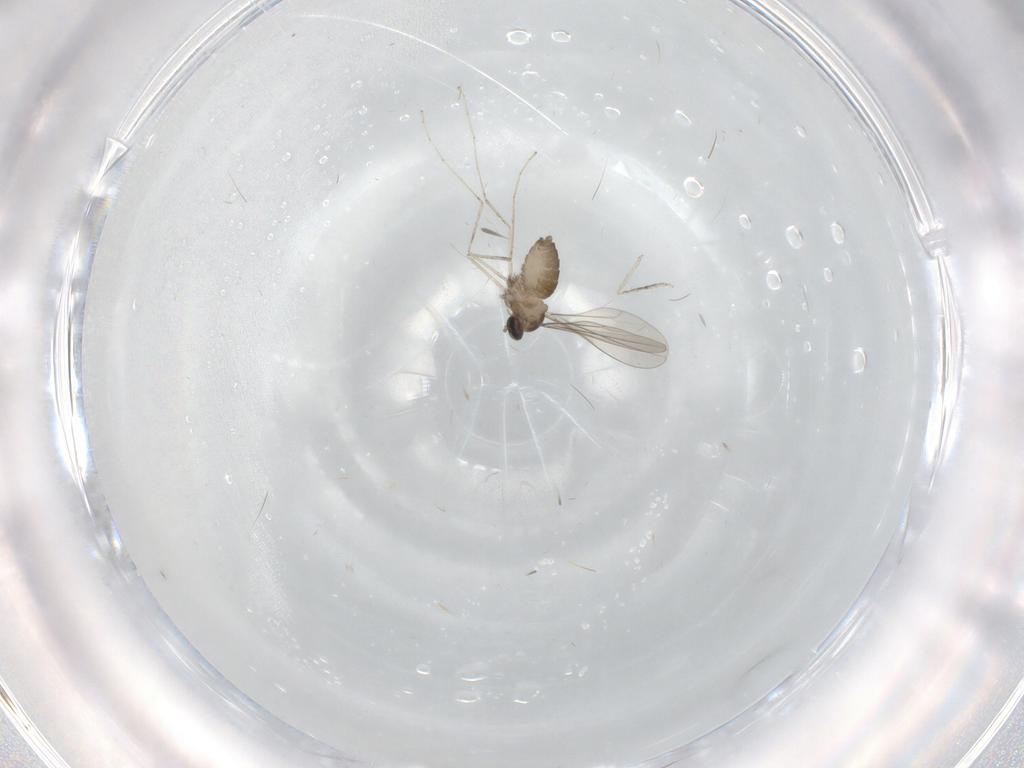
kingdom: Animalia
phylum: Arthropoda
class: Insecta
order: Diptera
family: Cecidomyiidae
